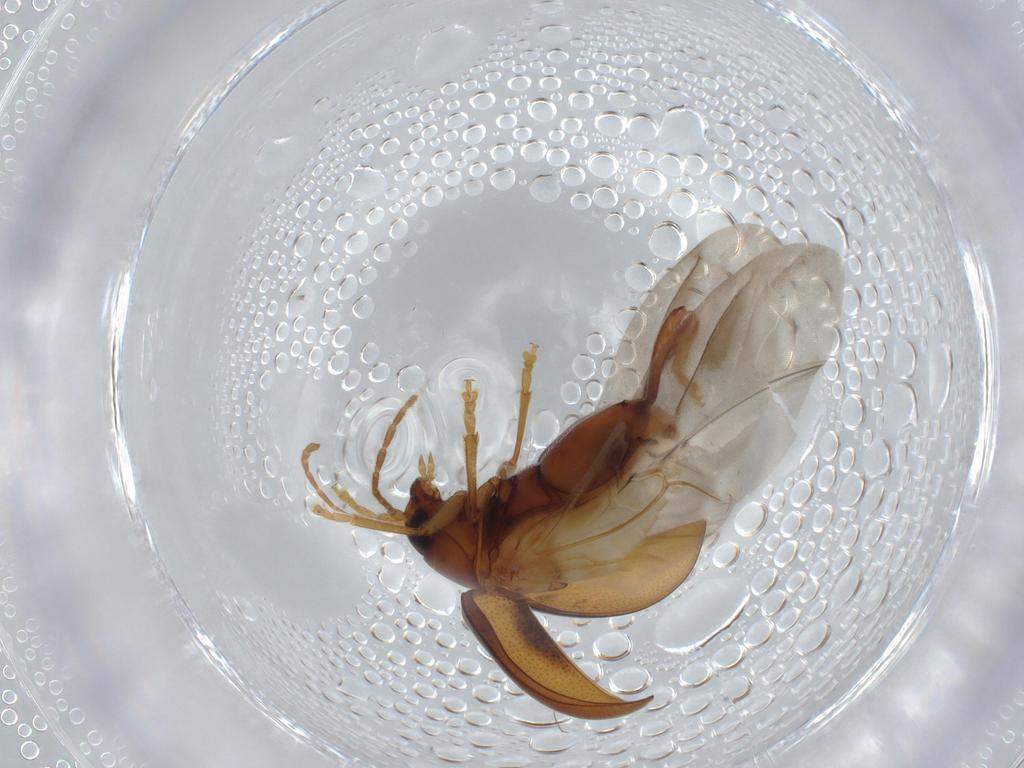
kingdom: Animalia
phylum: Arthropoda
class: Insecta
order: Coleoptera
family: Chrysomelidae
